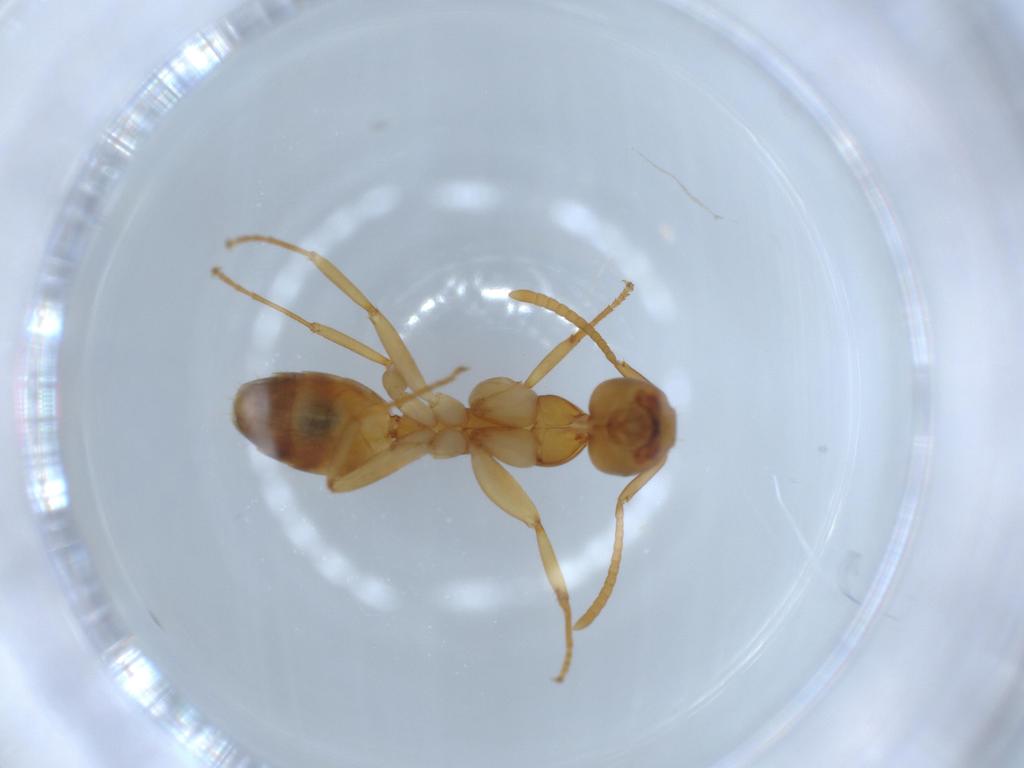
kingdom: Animalia
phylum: Arthropoda
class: Insecta
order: Hymenoptera
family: Formicidae
